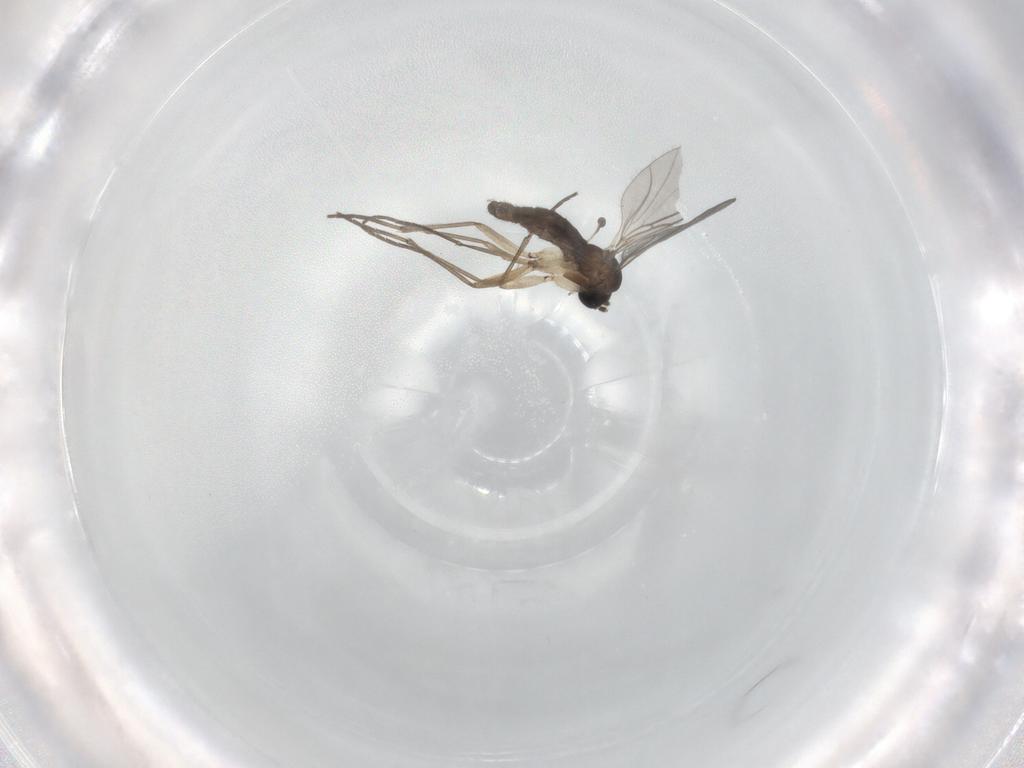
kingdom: Animalia
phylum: Arthropoda
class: Insecta
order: Diptera
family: Sciaridae
